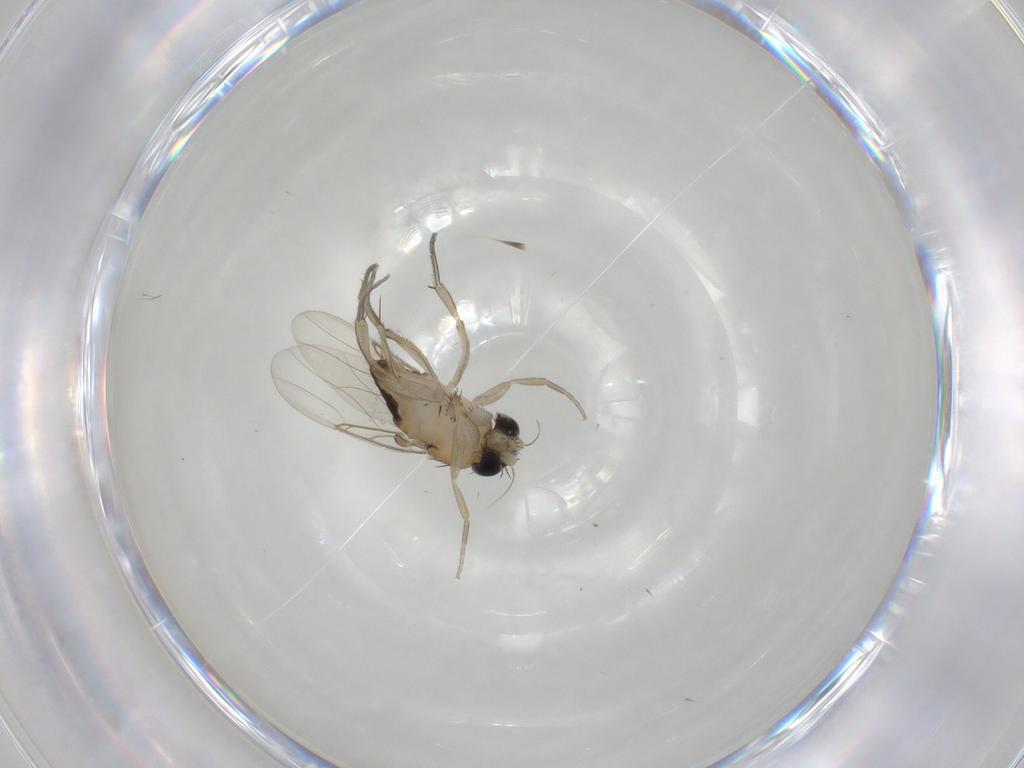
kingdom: Animalia
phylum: Arthropoda
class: Insecta
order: Diptera
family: Phoridae
